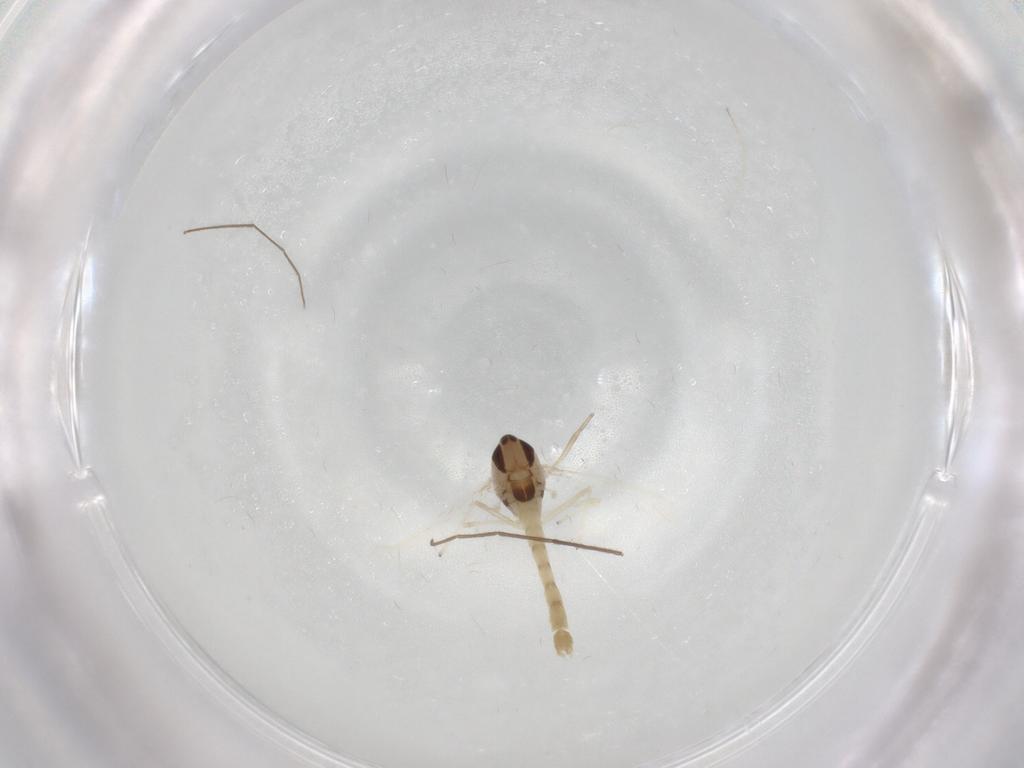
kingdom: Animalia
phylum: Arthropoda
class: Insecta
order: Diptera
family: Chironomidae
